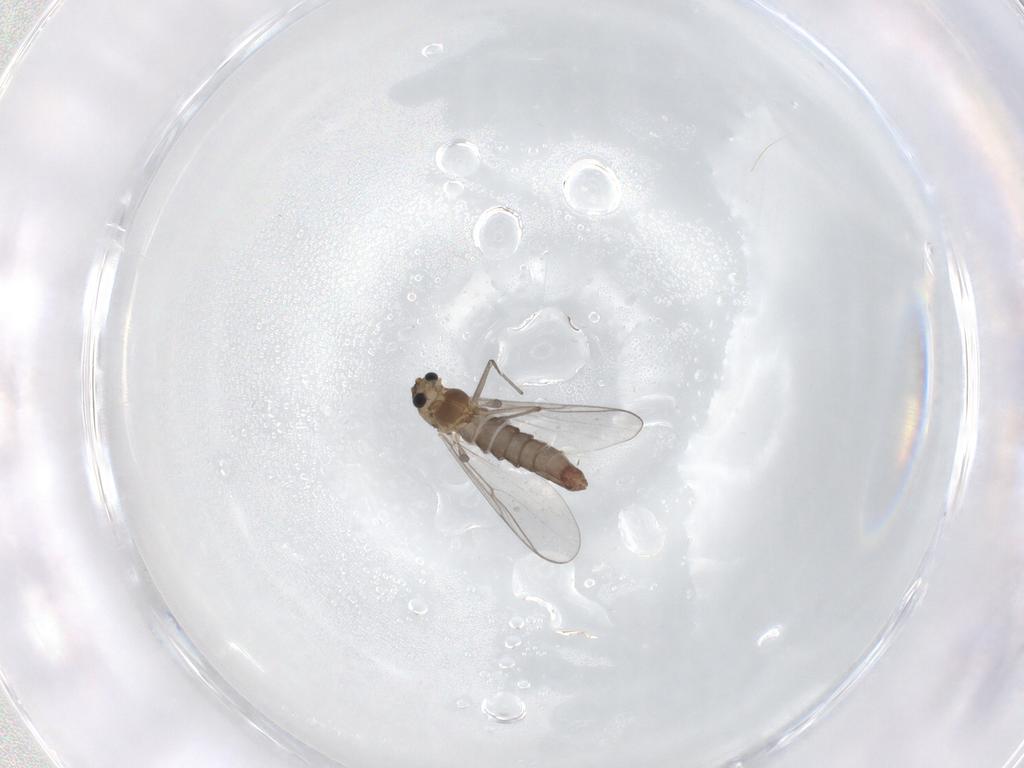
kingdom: Animalia
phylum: Arthropoda
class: Insecta
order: Diptera
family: Chironomidae
